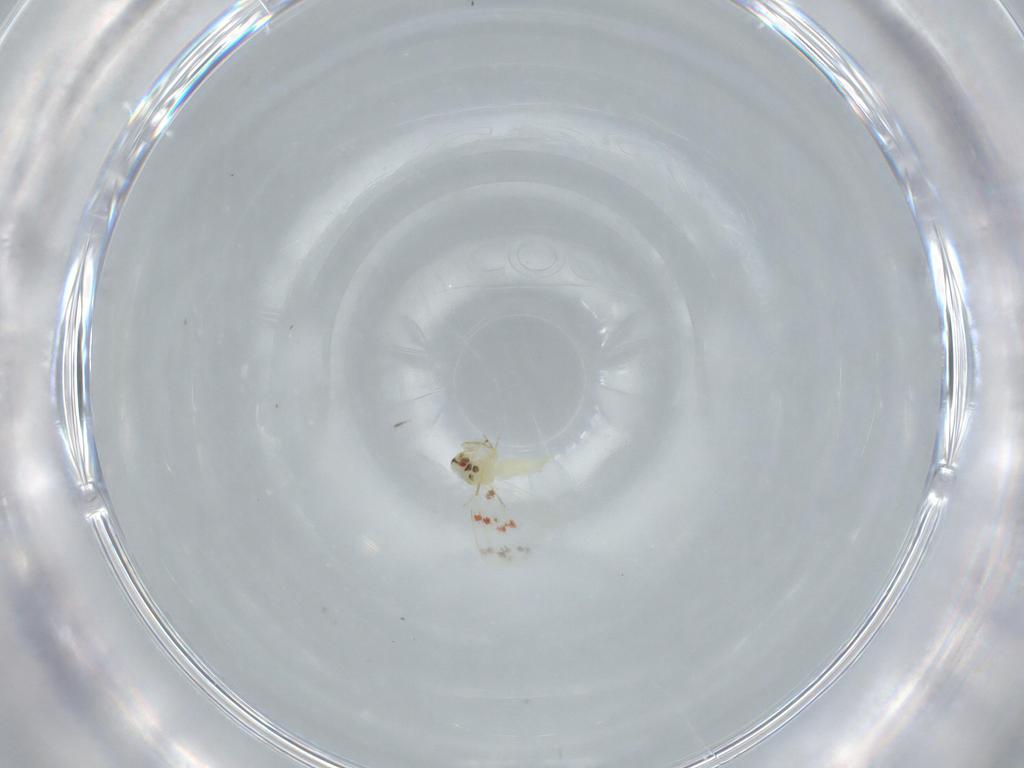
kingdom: Animalia
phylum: Arthropoda
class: Insecta
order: Hemiptera
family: Aleyrodidae
